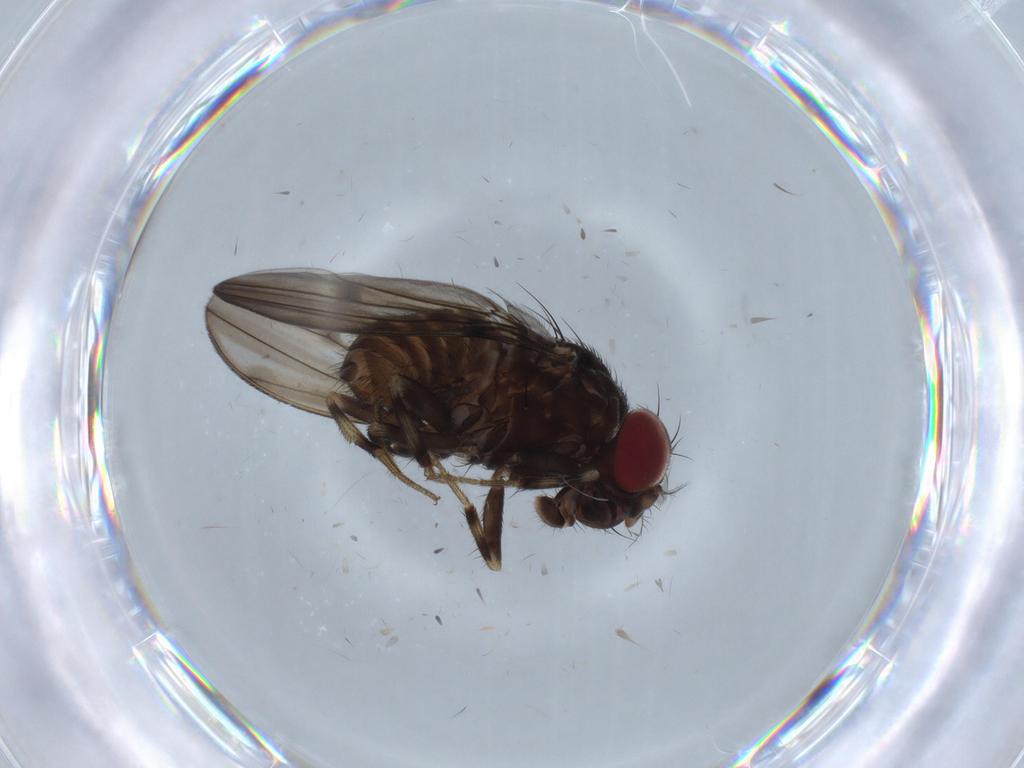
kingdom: Animalia
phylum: Arthropoda
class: Insecta
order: Diptera
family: Drosophilidae
